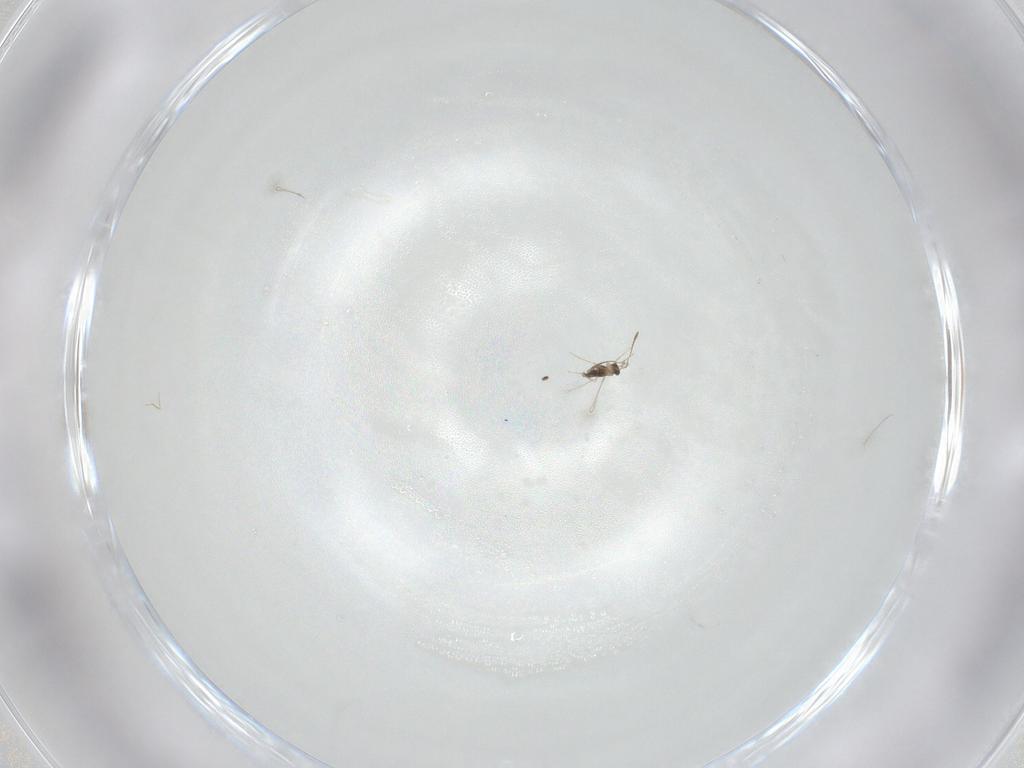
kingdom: Animalia
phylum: Arthropoda
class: Insecta
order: Hymenoptera
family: Mymaridae
